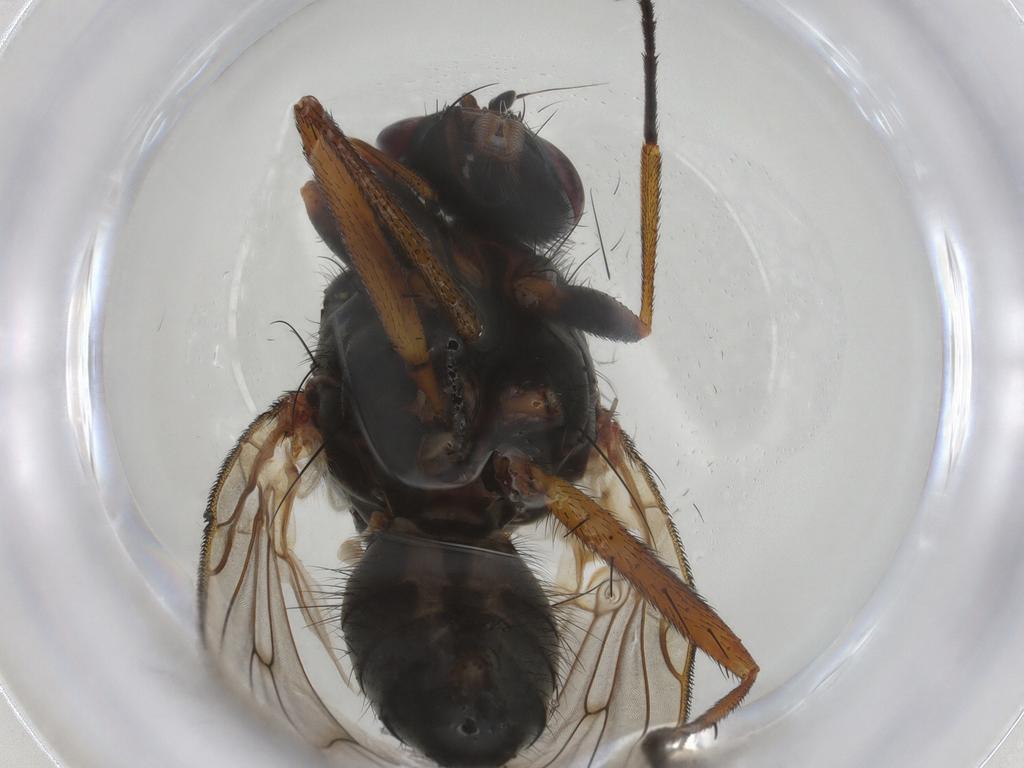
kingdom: Animalia
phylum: Arthropoda
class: Insecta
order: Diptera
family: Anthomyiidae
